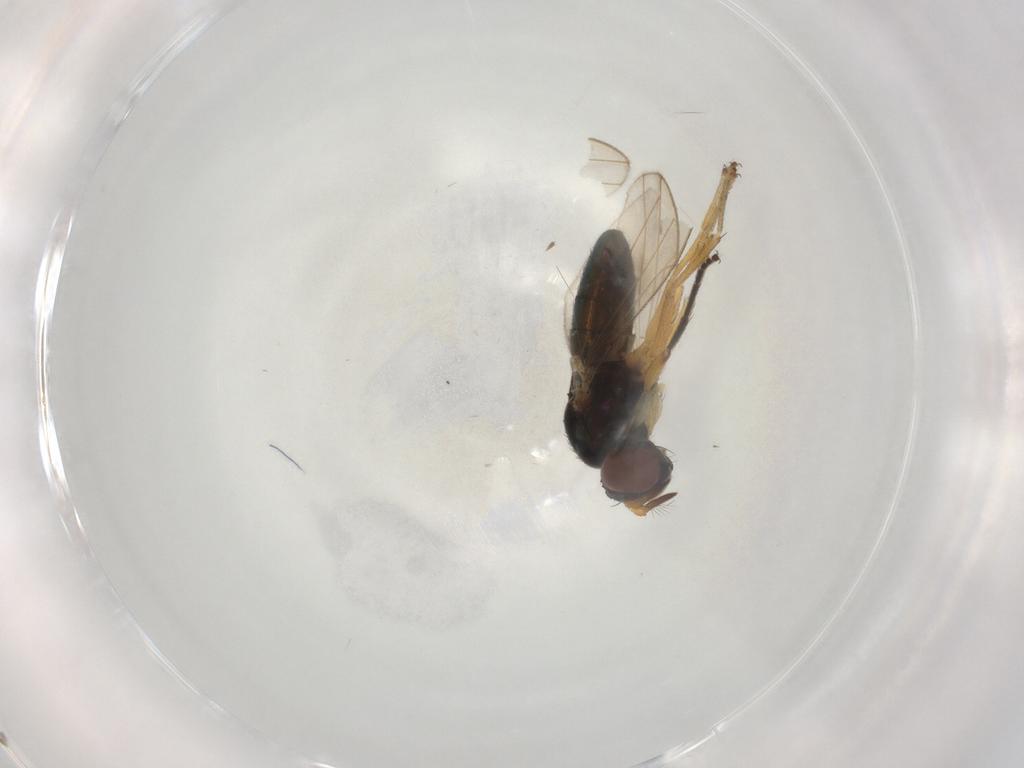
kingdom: Animalia
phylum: Arthropoda
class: Insecta
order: Diptera
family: Ephydridae
